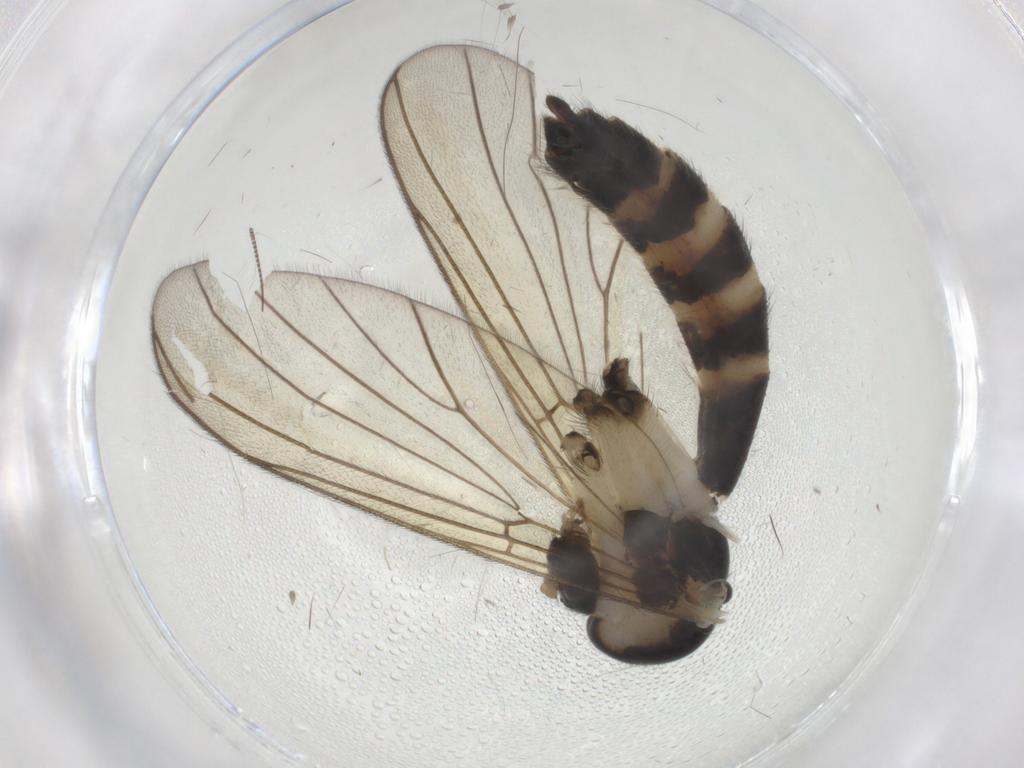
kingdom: Animalia
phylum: Arthropoda
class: Insecta
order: Diptera
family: Mycetophilidae
